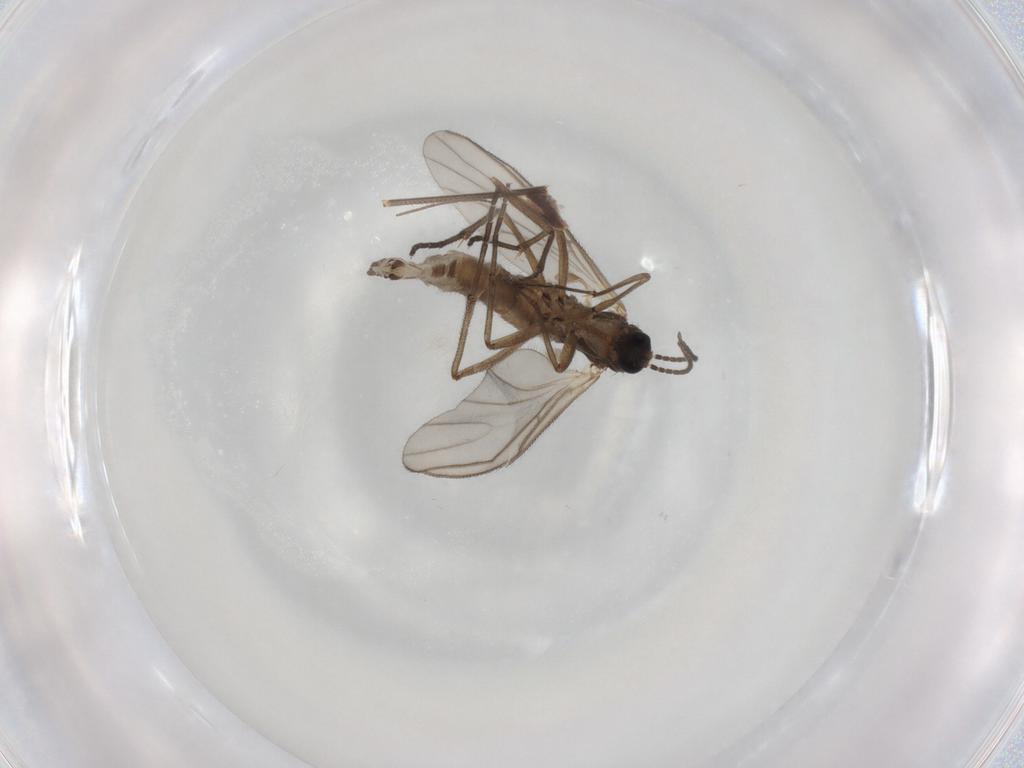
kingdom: Animalia
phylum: Arthropoda
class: Insecta
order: Diptera
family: Sciaridae
